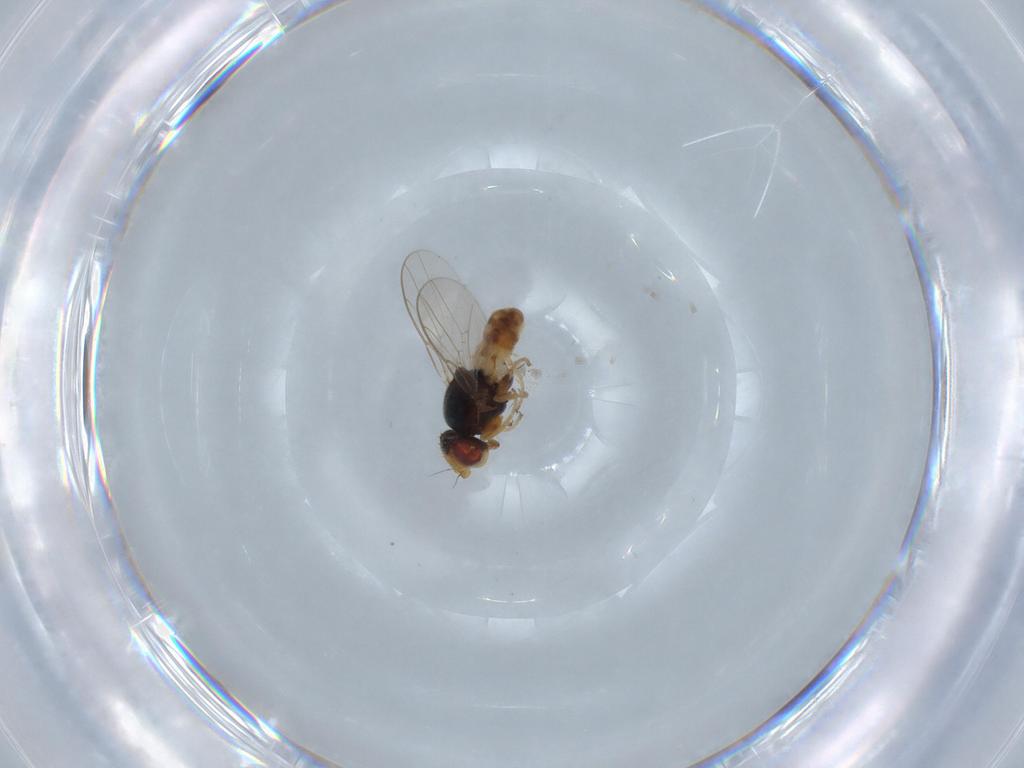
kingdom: Animalia
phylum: Arthropoda
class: Insecta
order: Diptera
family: Chloropidae
